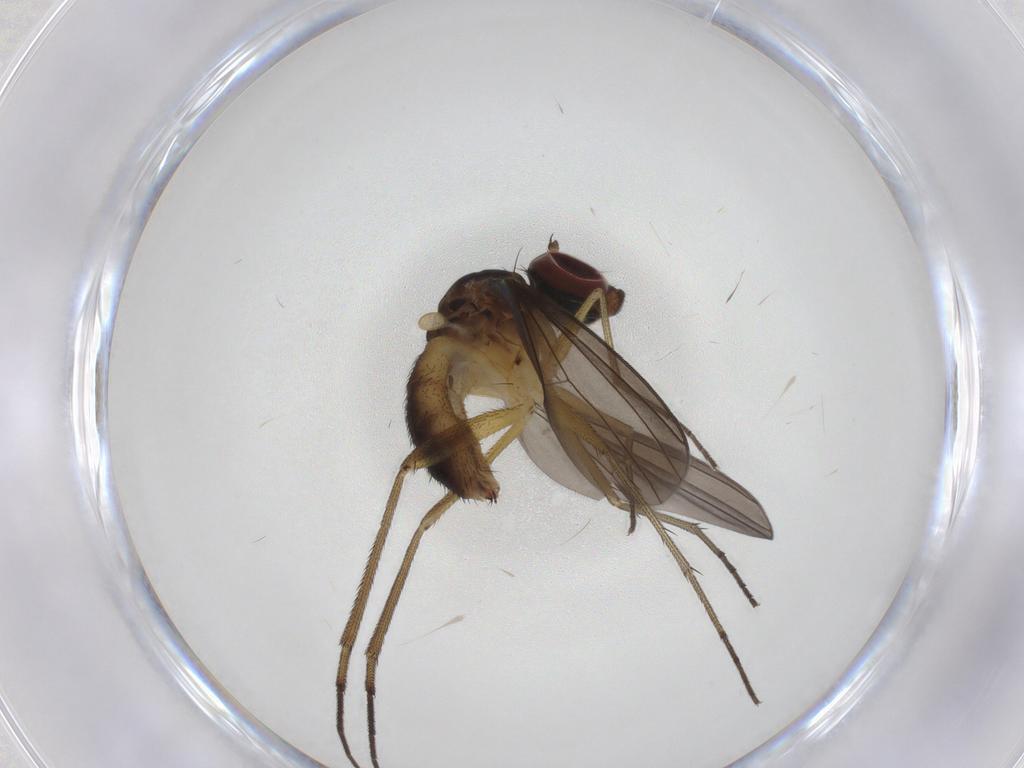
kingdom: Animalia
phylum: Arthropoda
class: Insecta
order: Diptera
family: Dolichopodidae
